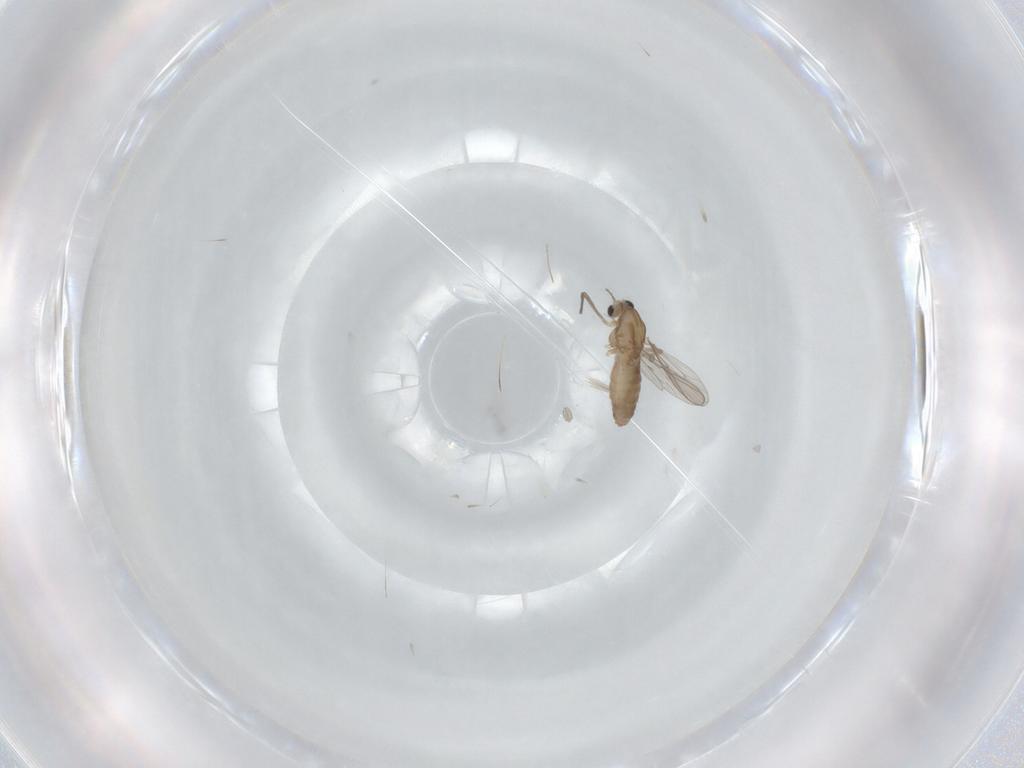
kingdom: Animalia
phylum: Arthropoda
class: Insecta
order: Diptera
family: Chironomidae
